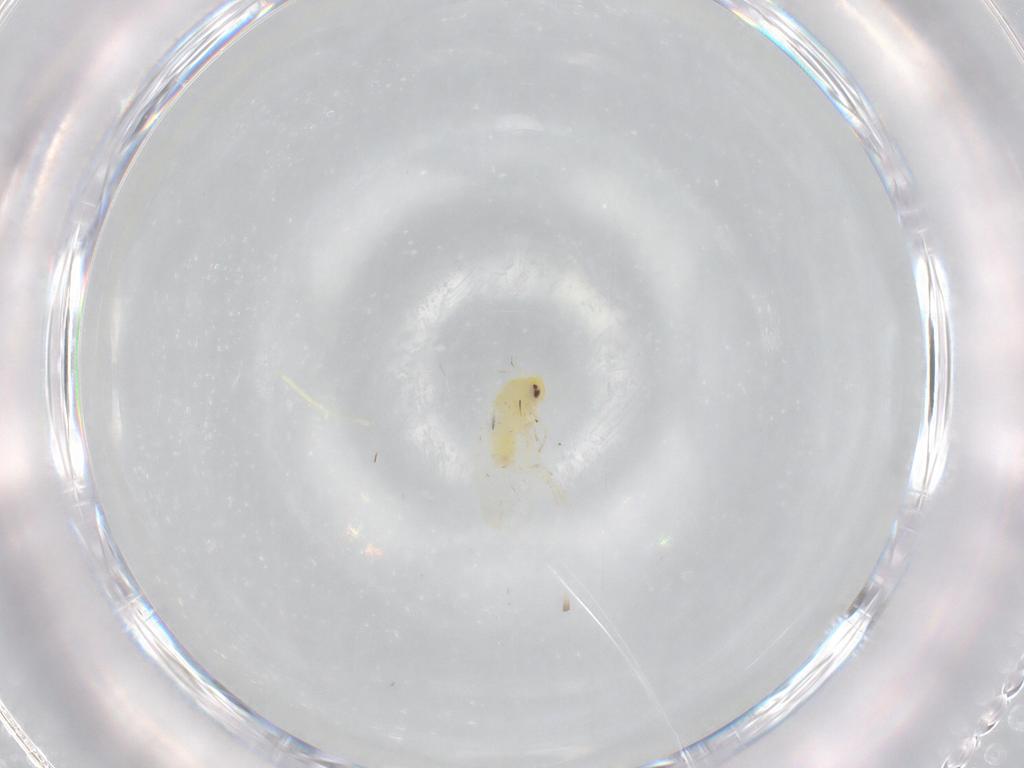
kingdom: Animalia
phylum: Arthropoda
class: Insecta
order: Hemiptera
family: Aleyrodidae
